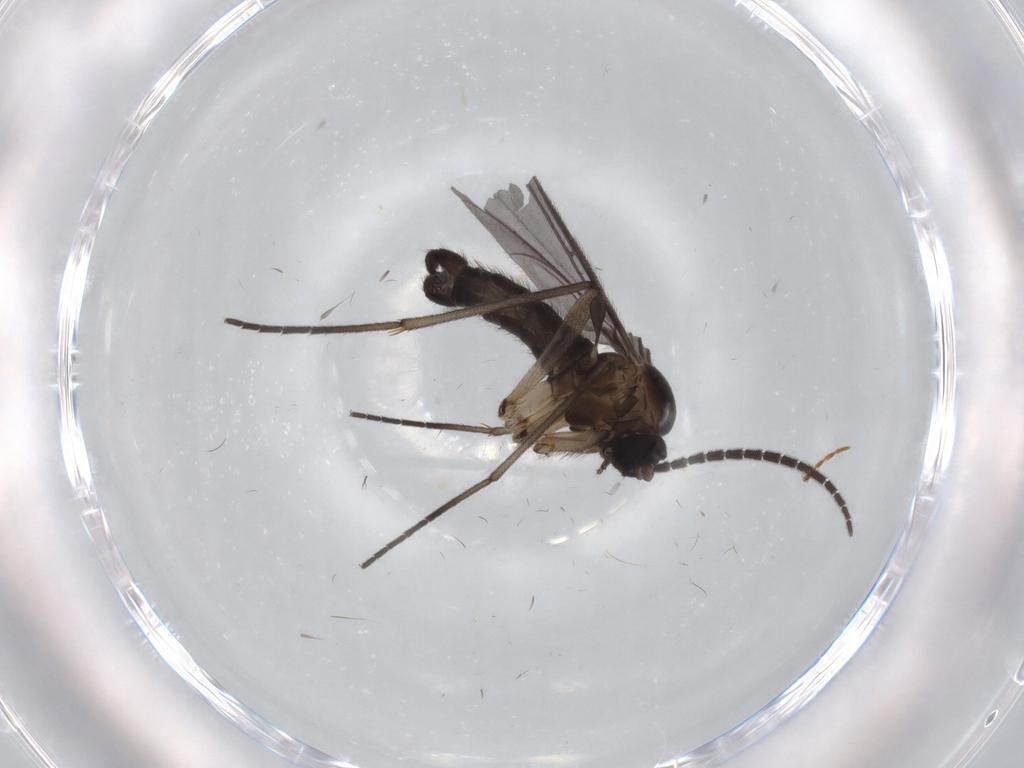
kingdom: Animalia
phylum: Arthropoda
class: Insecta
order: Diptera
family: Sciaridae
